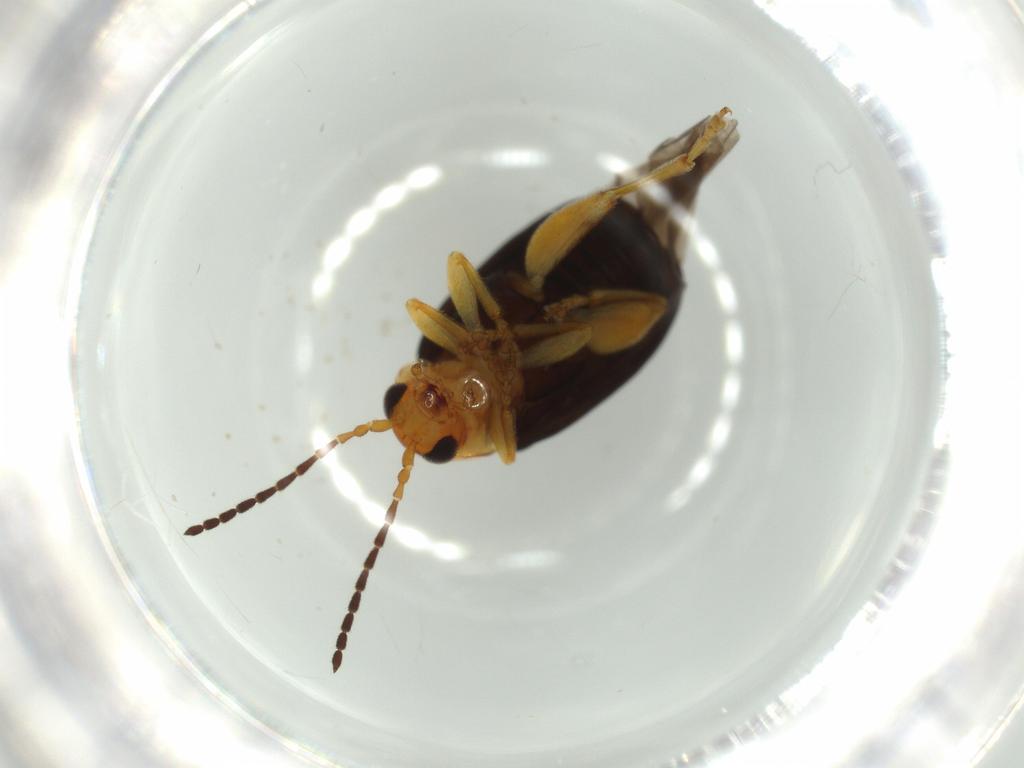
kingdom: Animalia
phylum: Arthropoda
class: Insecta
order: Coleoptera
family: Chrysomelidae
